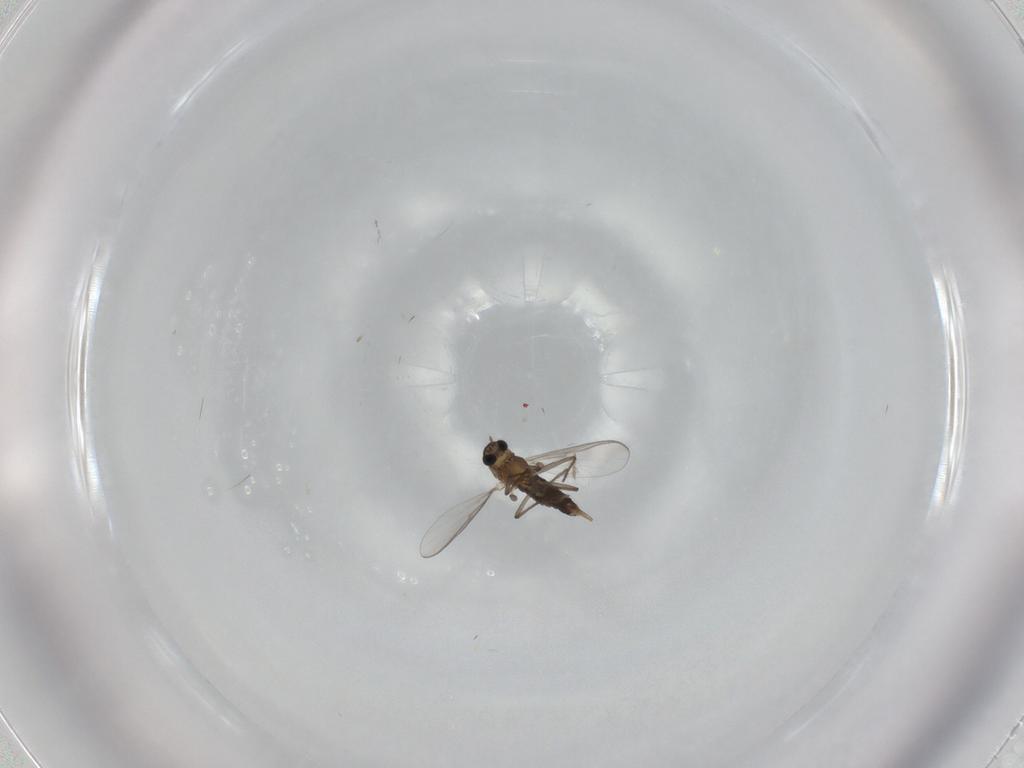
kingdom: Animalia
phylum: Arthropoda
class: Insecta
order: Diptera
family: Chironomidae
